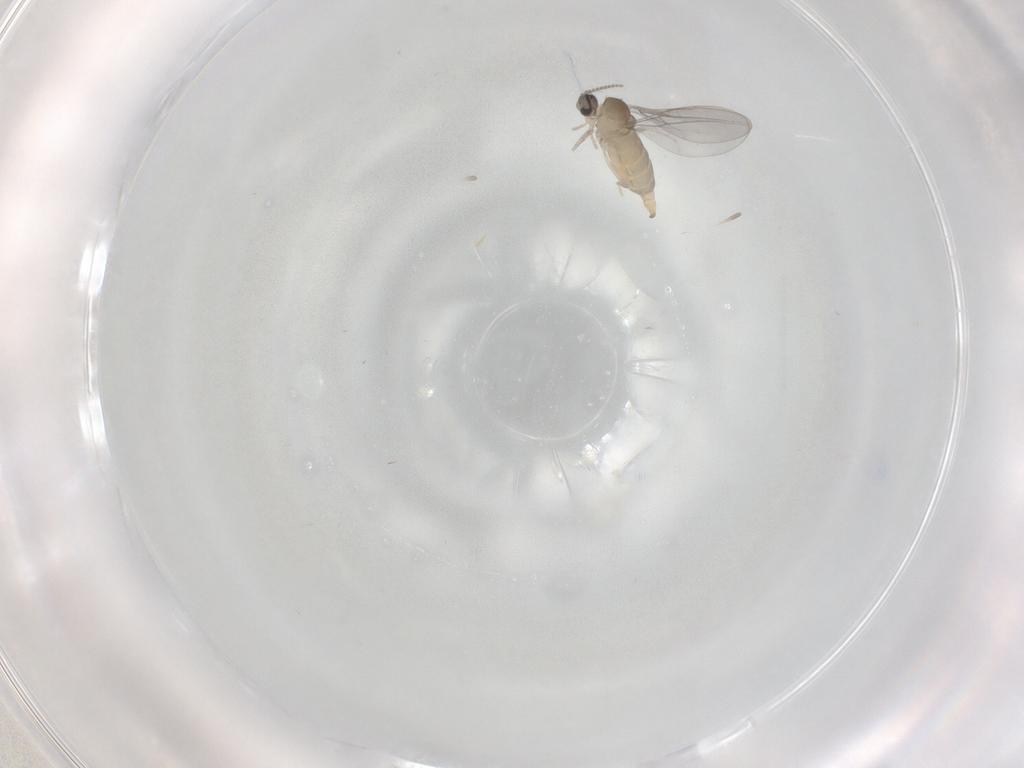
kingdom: Animalia
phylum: Arthropoda
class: Insecta
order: Diptera
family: Cecidomyiidae
